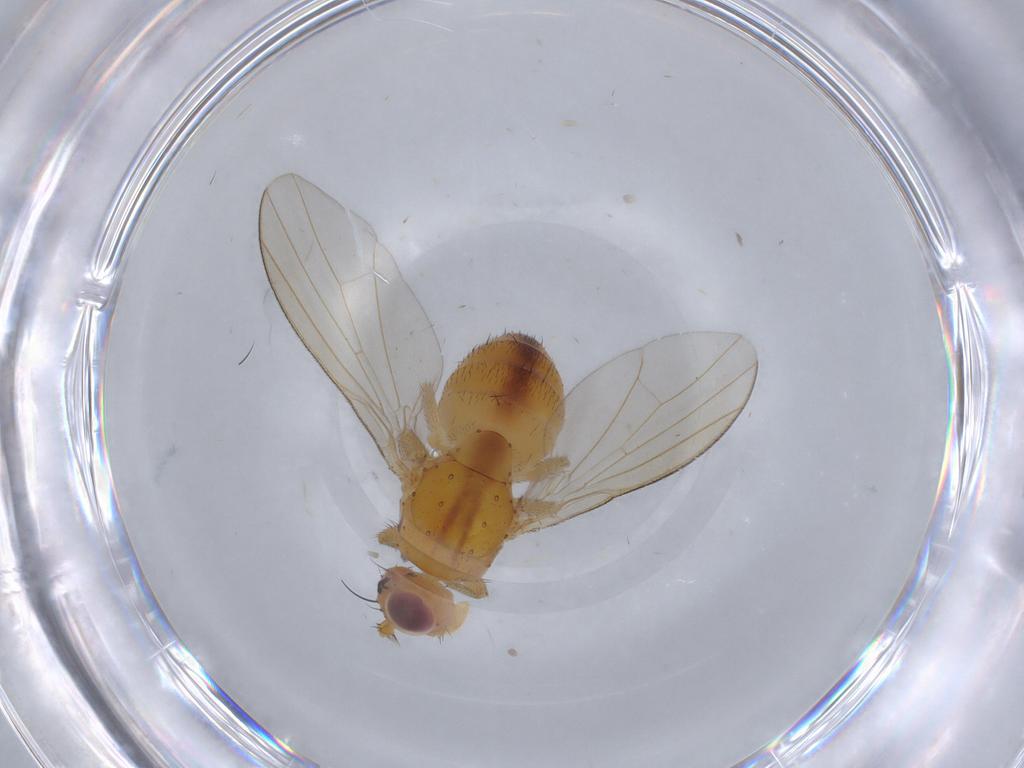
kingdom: Animalia
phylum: Arthropoda
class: Insecta
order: Diptera
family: Lauxaniidae
